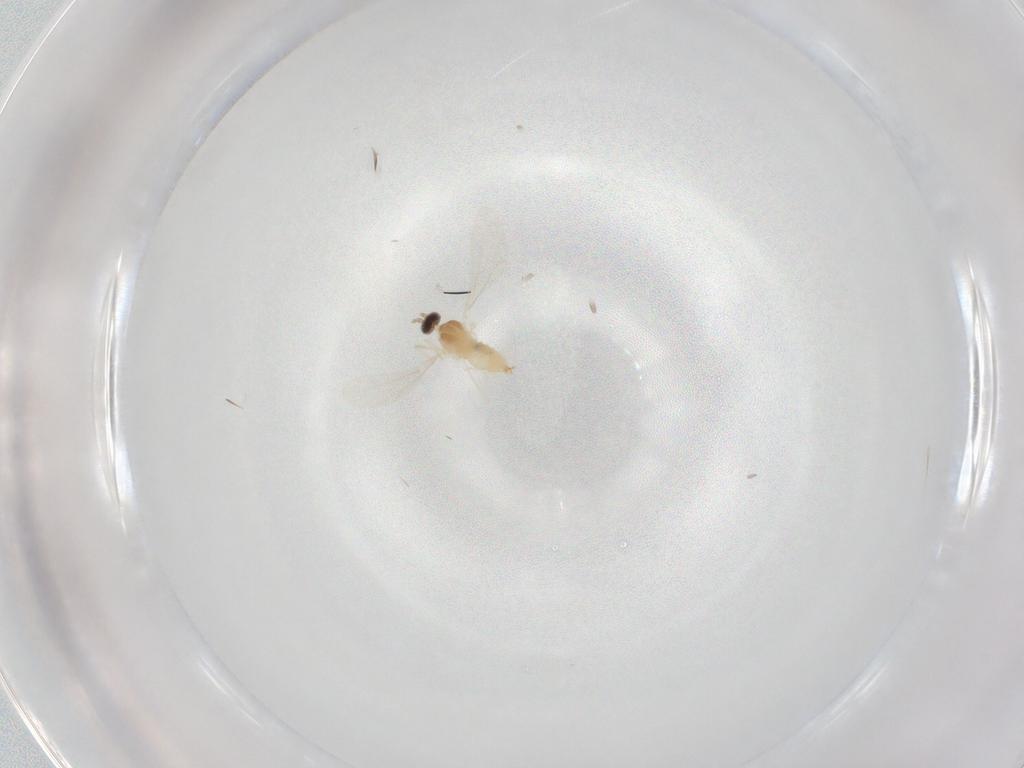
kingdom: Animalia
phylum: Arthropoda
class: Insecta
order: Diptera
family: Cecidomyiidae
